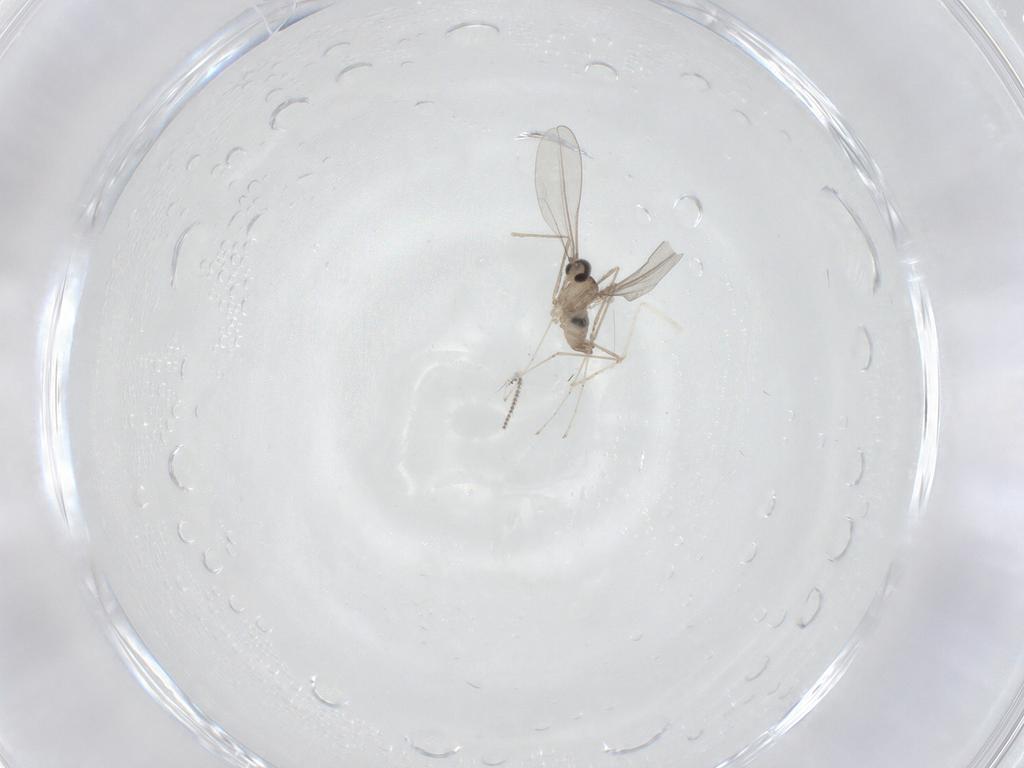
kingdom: Animalia
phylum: Arthropoda
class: Insecta
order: Diptera
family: Cecidomyiidae
